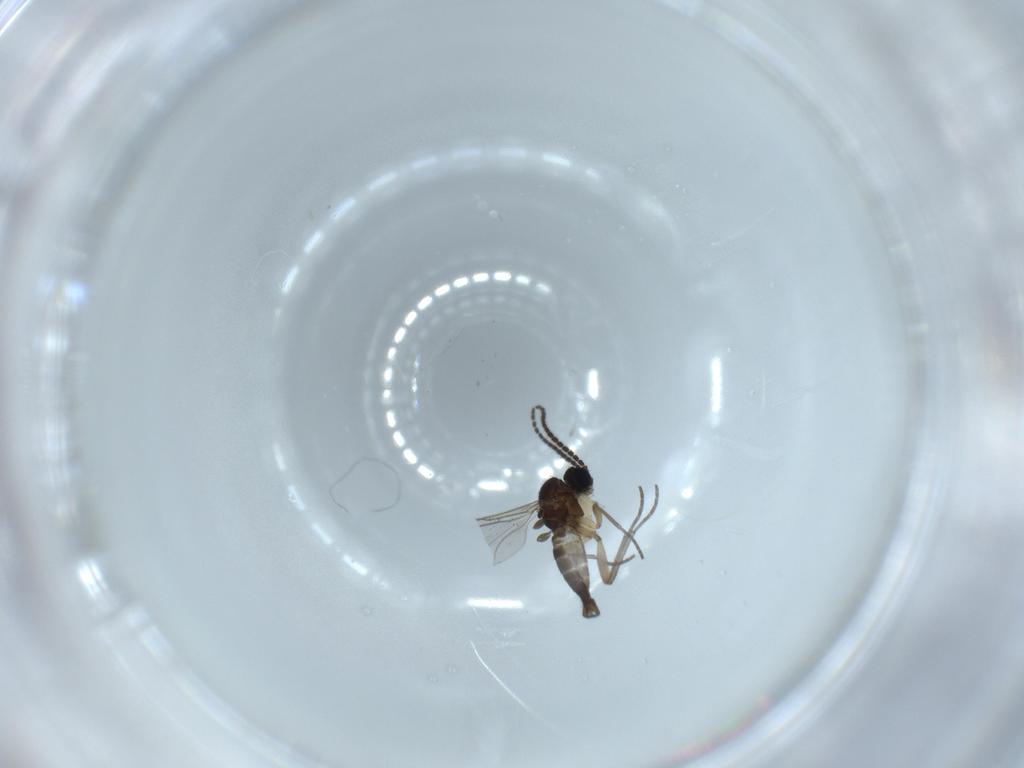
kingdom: Animalia
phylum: Arthropoda
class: Insecta
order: Diptera
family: Sciaridae
